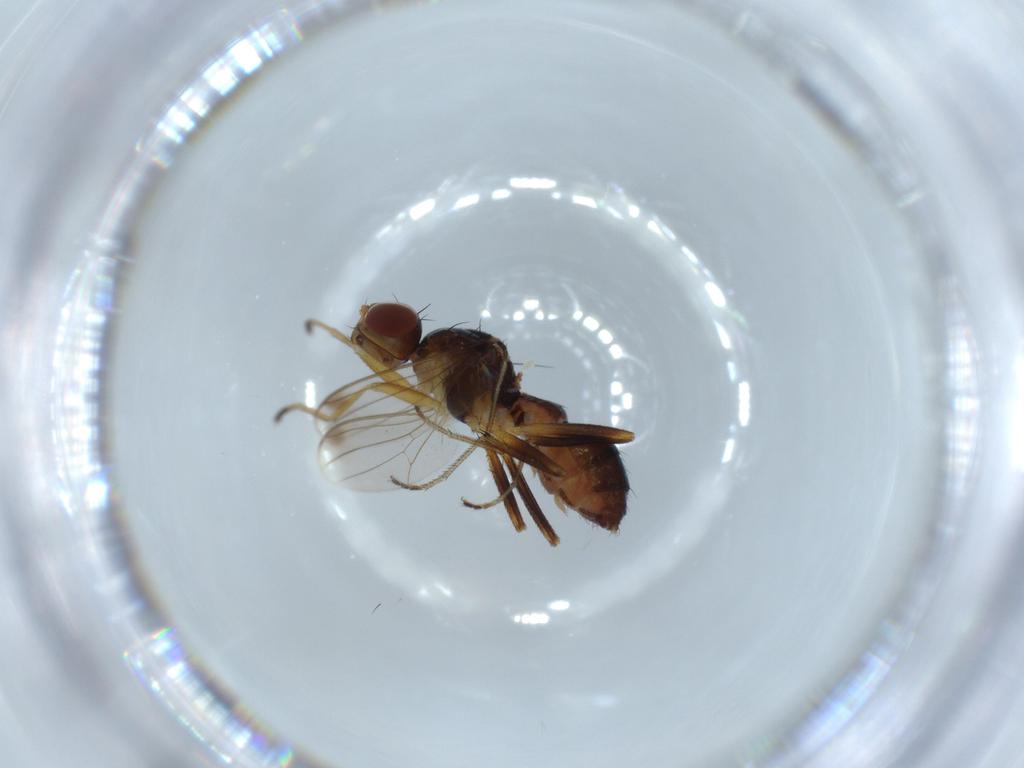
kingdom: Animalia
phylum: Arthropoda
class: Insecta
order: Diptera
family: Sepsidae
